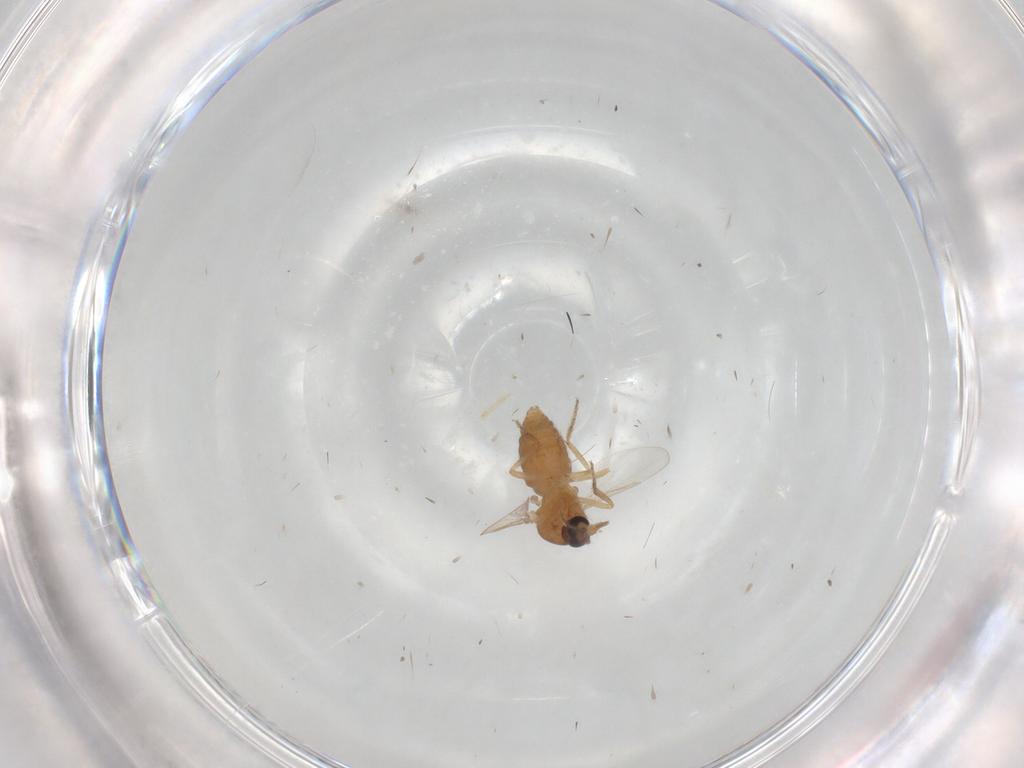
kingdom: Animalia
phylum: Arthropoda
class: Insecta
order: Diptera
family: Ceratopogonidae
